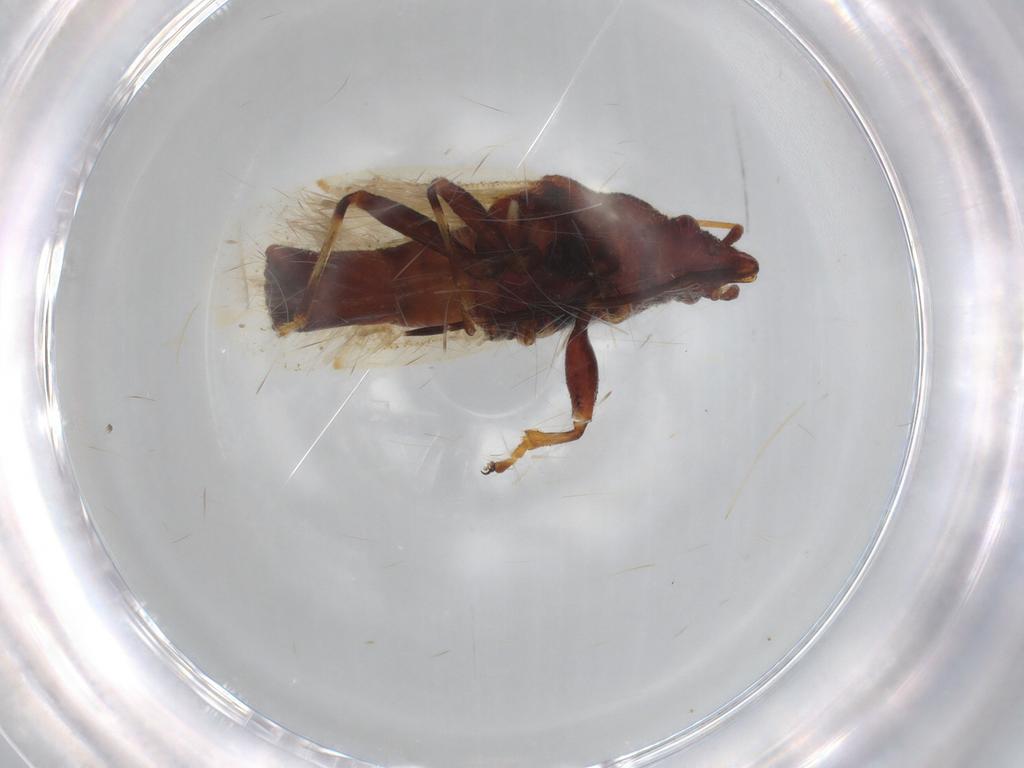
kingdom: Animalia
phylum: Arthropoda
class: Insecta
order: Hemiptera
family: Oxycarenidae
